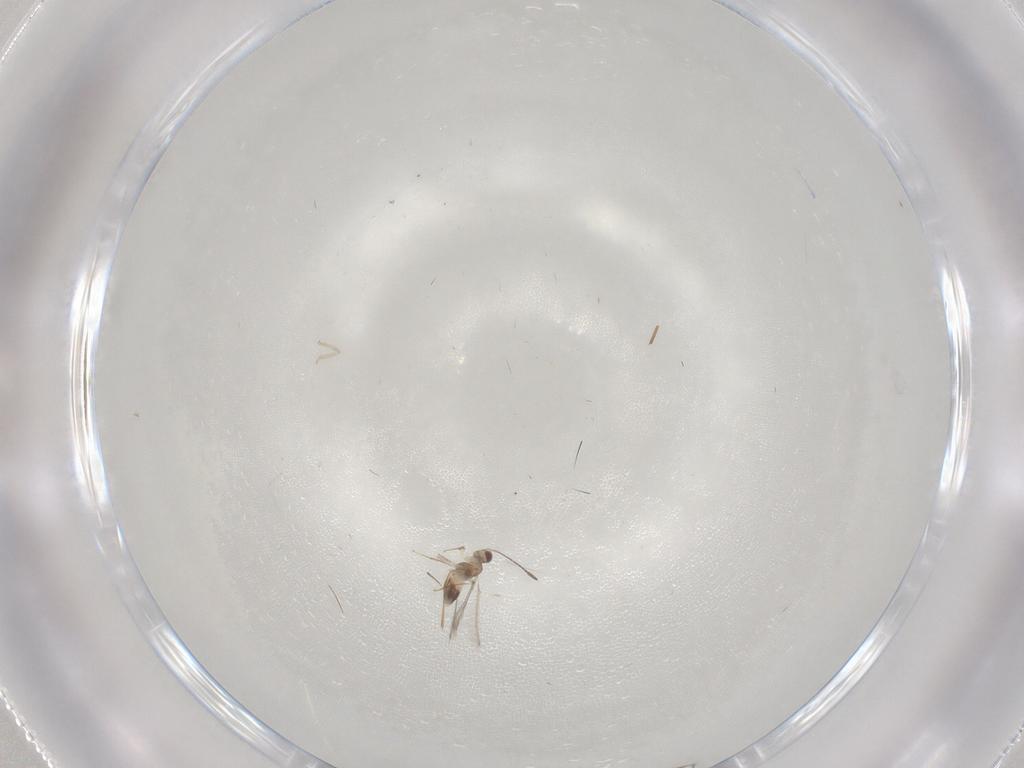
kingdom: Animalia
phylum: Arthropoda
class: Insecta
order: Hymenoptera
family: Mymaridae
